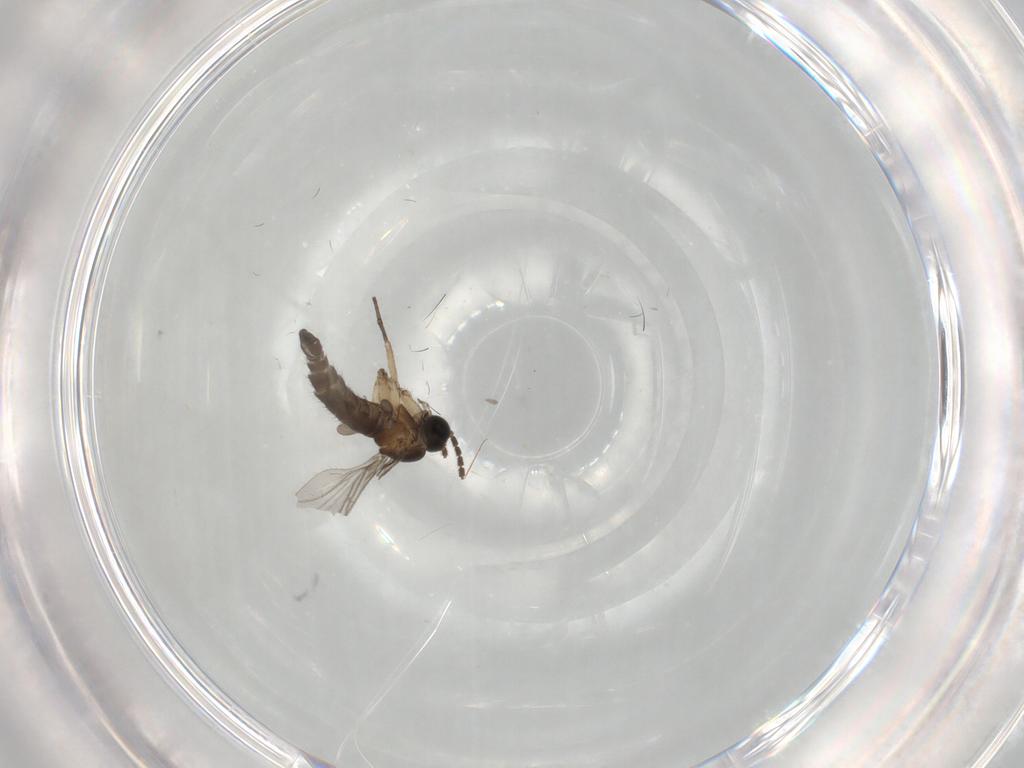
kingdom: Animalia
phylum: Arthropoda
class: Insecta
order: Diptera
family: Sciaridae
